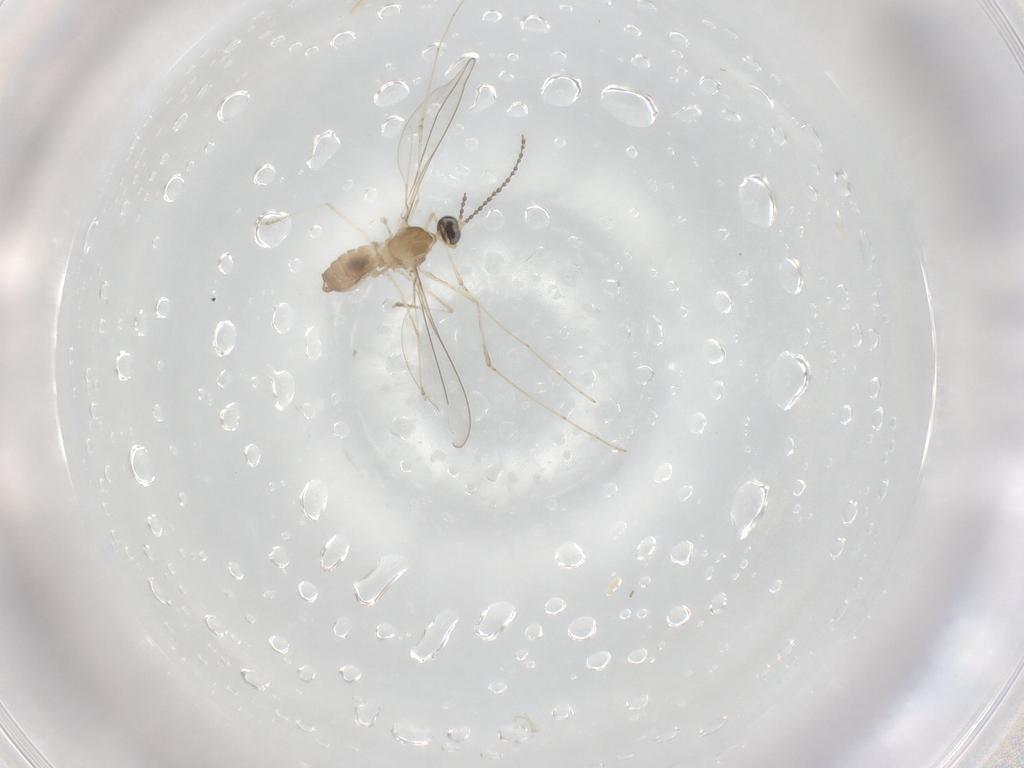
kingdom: Animalia
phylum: Arthropoda
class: Insecta
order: Diptera
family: Cecidomyiidae
